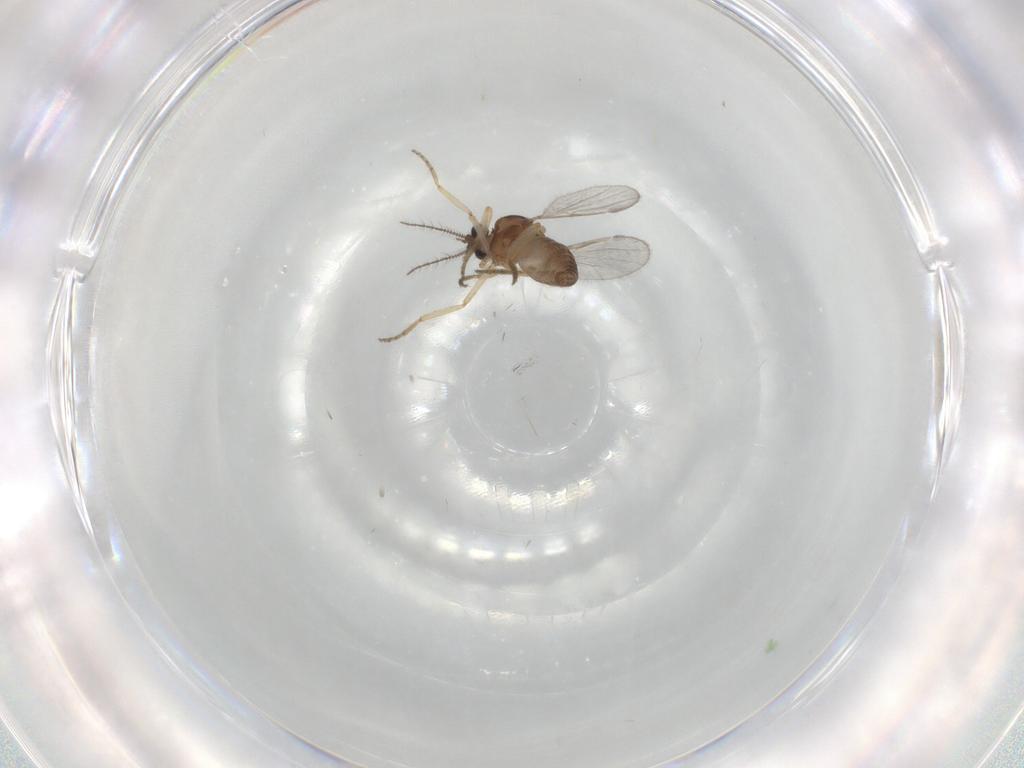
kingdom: Animalia
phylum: Arthropoda
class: Insecta
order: Diptera
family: Ceratopogonidae
